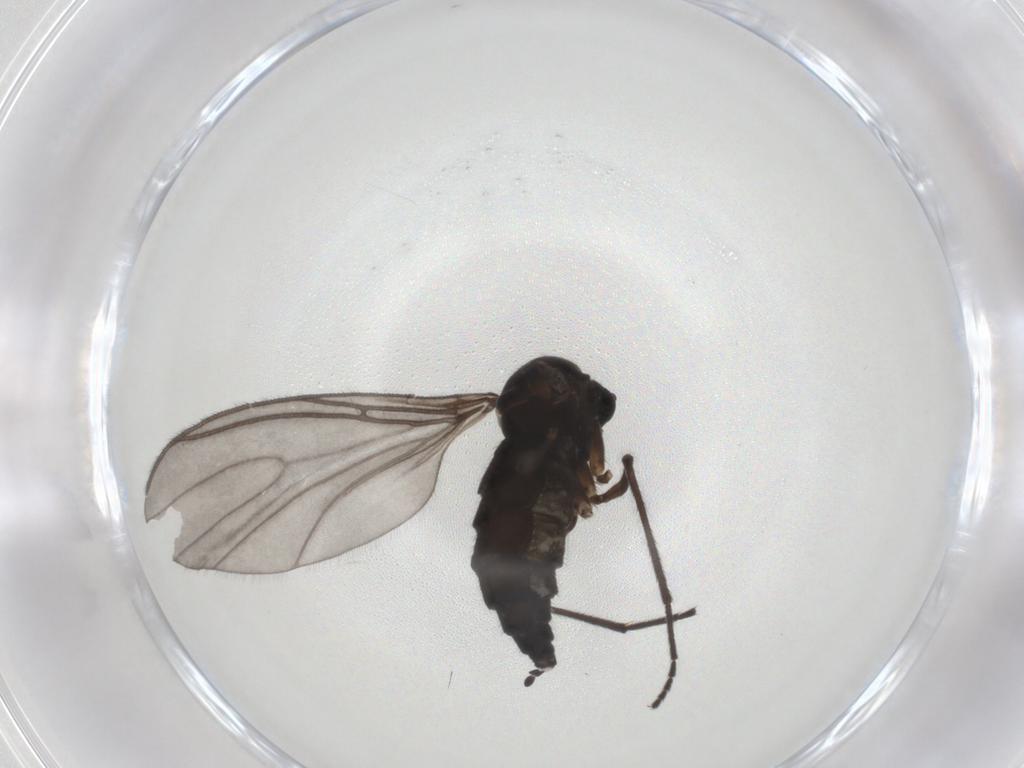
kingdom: Animalia
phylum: Arthropoda
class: Insecta
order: Diptera
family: Sciaridae
